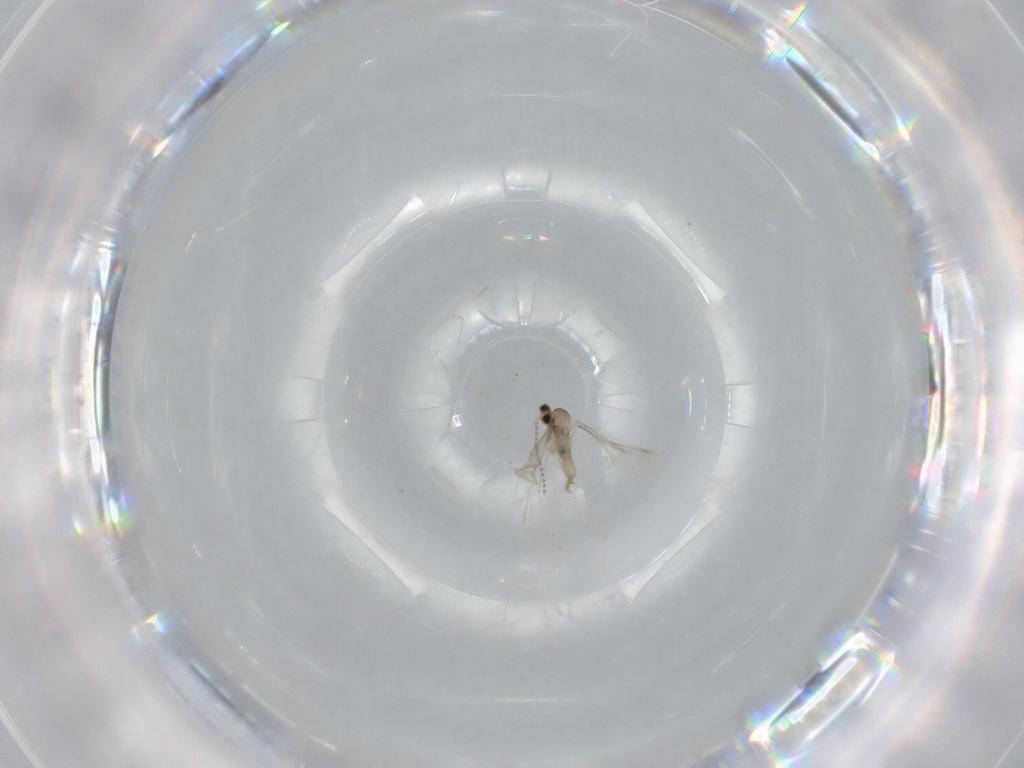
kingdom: Animalia
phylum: Arthropoda
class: Insecta
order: Diptera
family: Cecidomyiidae
